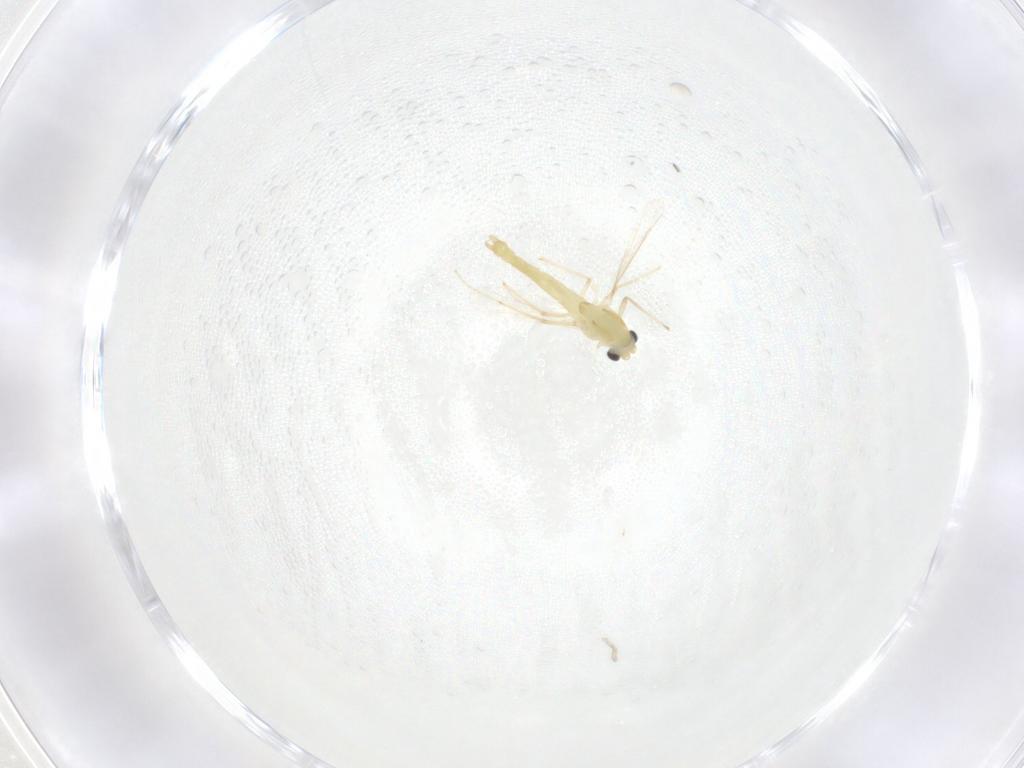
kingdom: Animalia
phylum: Arthropoda
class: Insecta
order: Diptera
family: Chironomidae
